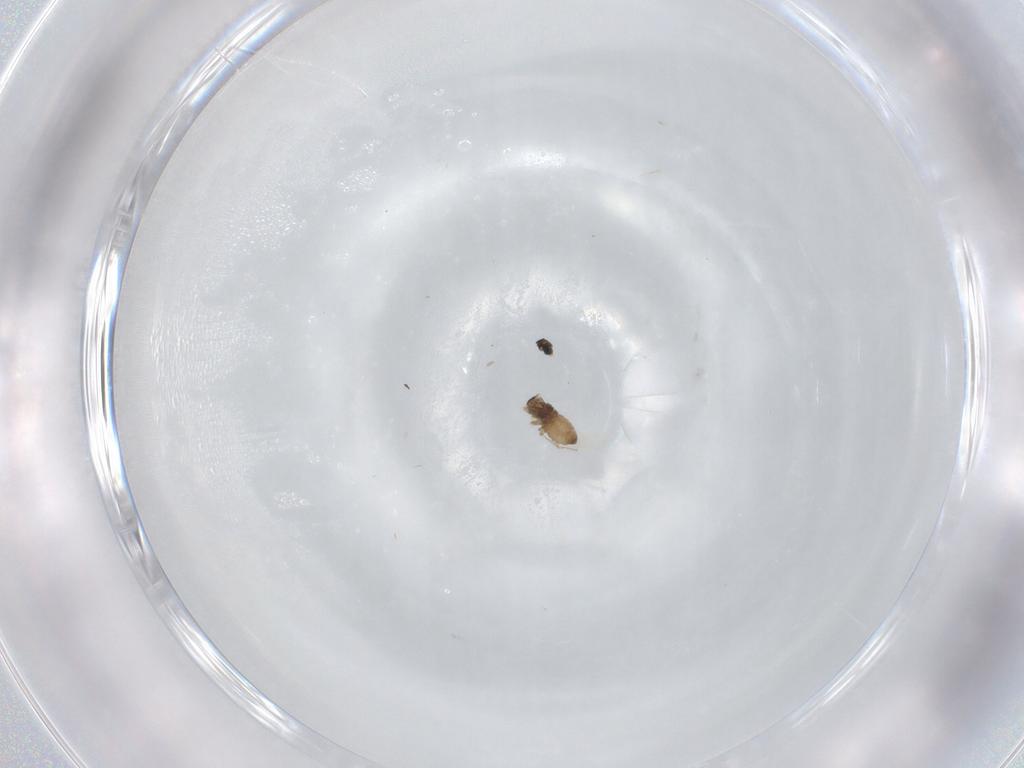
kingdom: Animalia
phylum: Arthropoda
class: Insecta
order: Diptera
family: Cecidomyiidae
